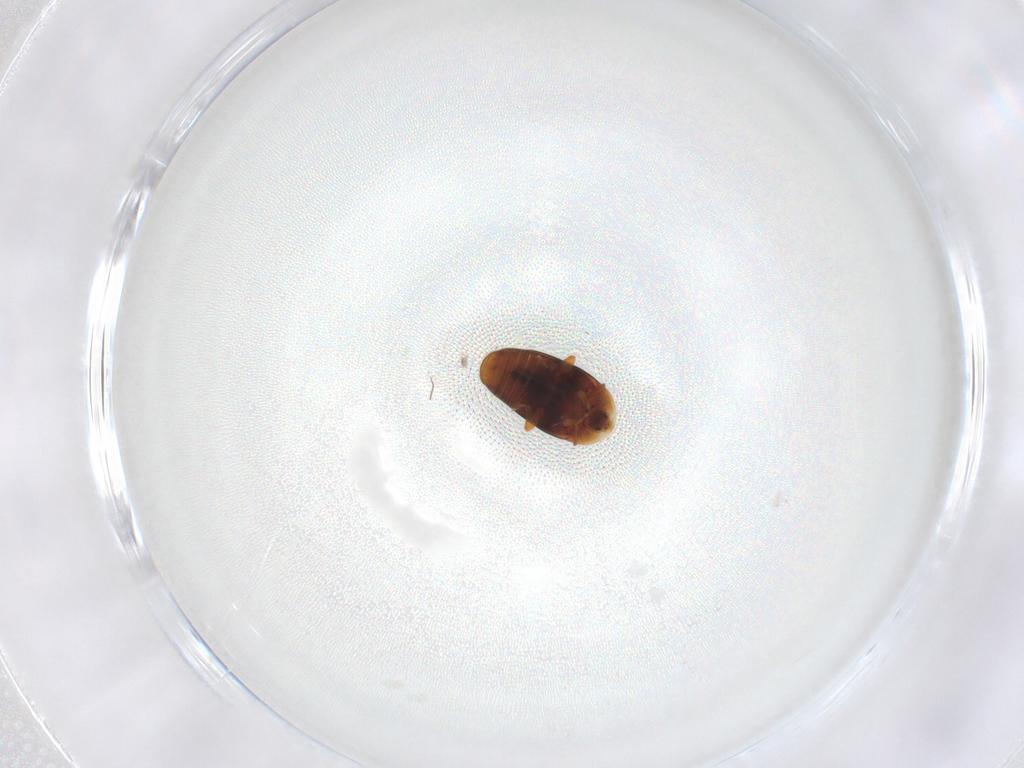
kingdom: Animalia
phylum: Arthropoda
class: Insecta
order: Coleoptera
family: Corylophidae
